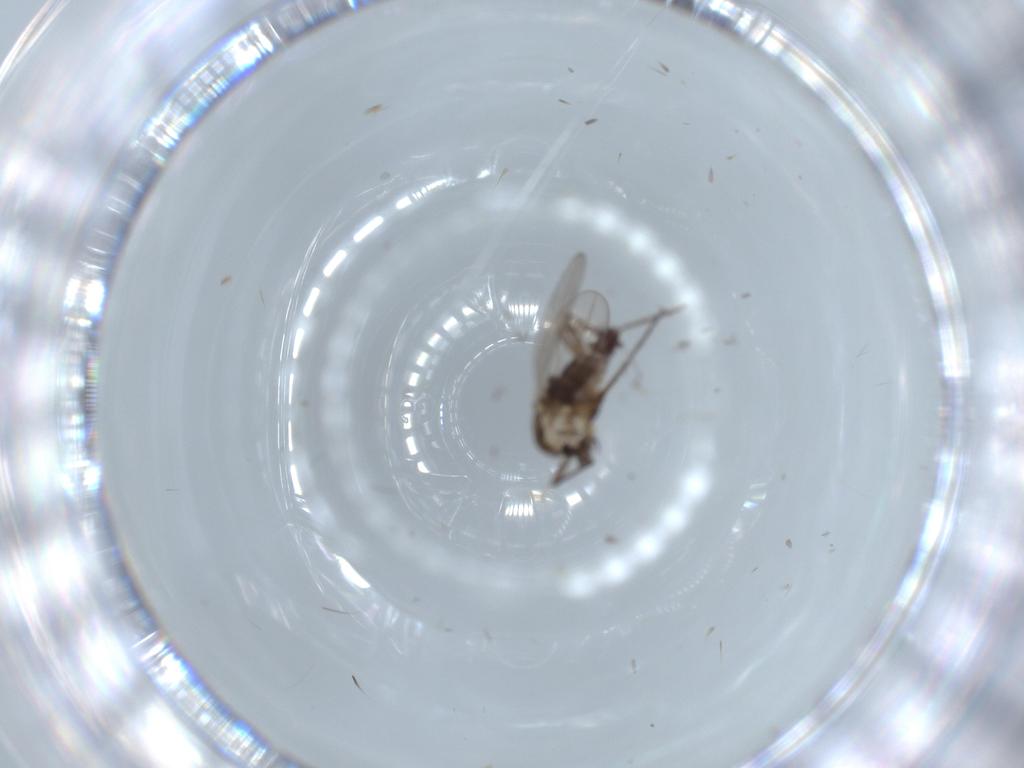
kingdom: Animalia
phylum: Arthropoda
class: Insecta
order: Diptera
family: Chironomidae
